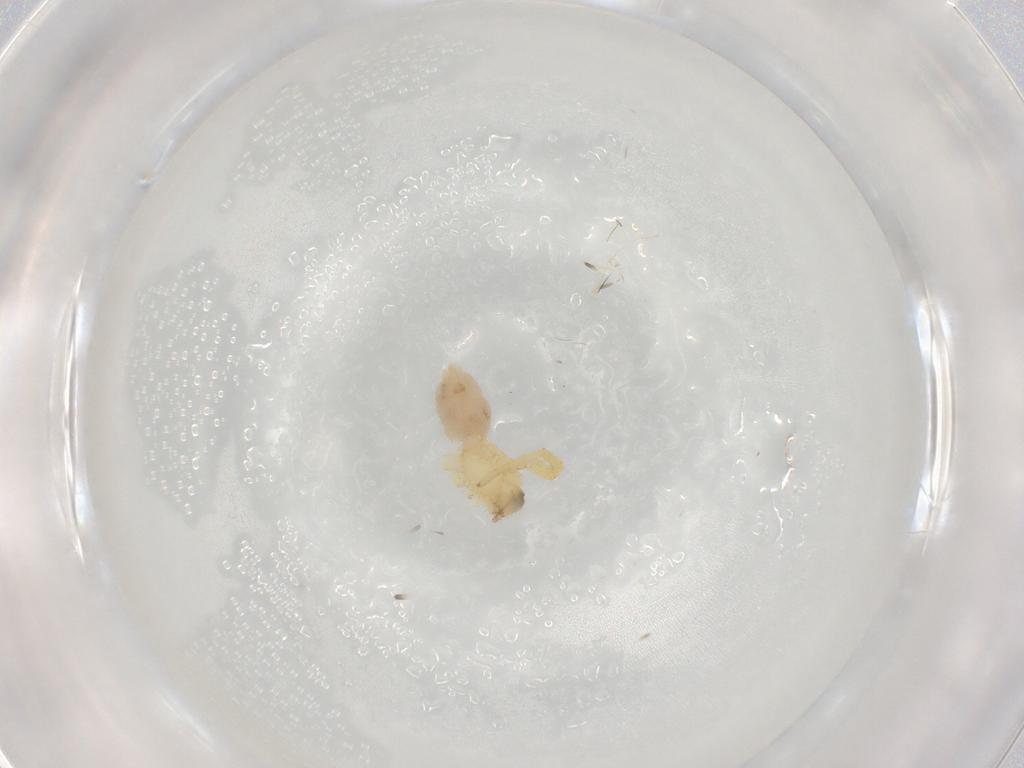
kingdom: Animalia
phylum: Arthropoda
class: Arachnida
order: Araneae
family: Oonopidae
